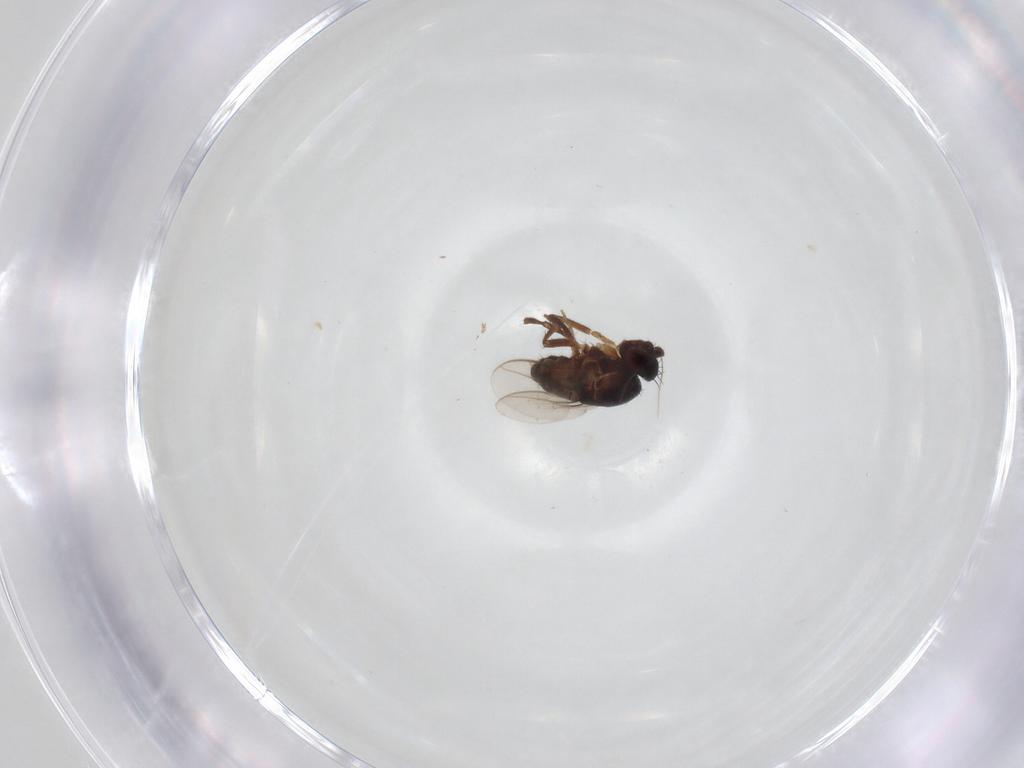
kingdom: Animalia
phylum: Arthropoda
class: Insecta
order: Diptera
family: Sphaeroceridae
